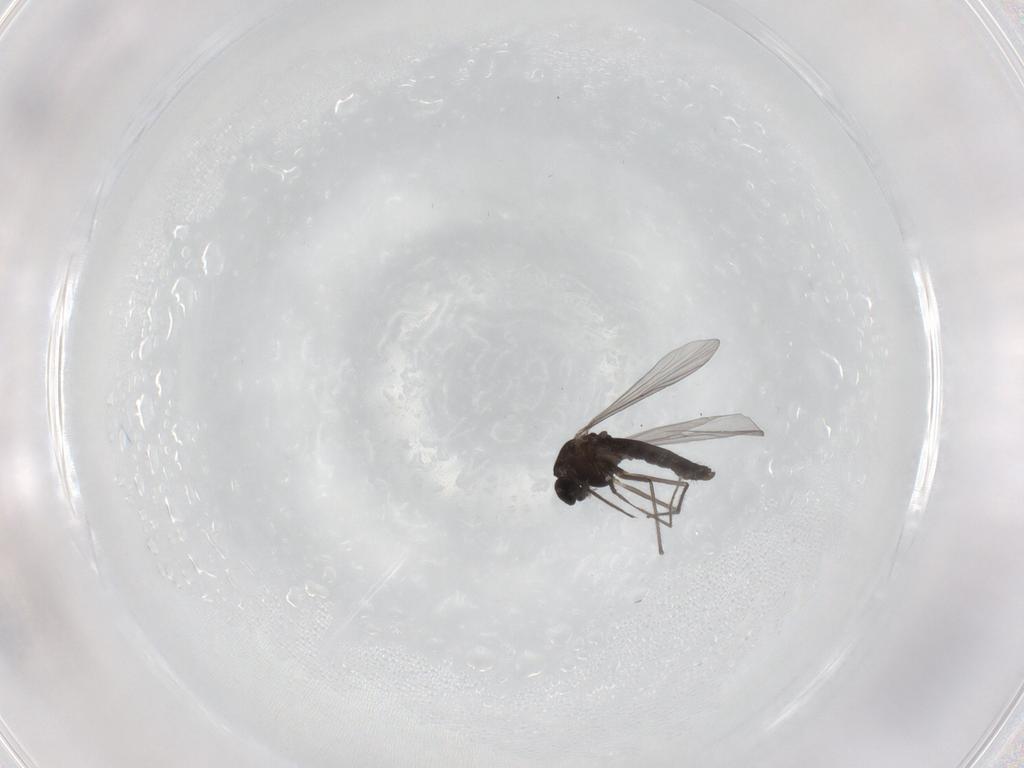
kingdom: Animalia
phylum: Arthropoda
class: Insecta
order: Diptera
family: Chironomidae
